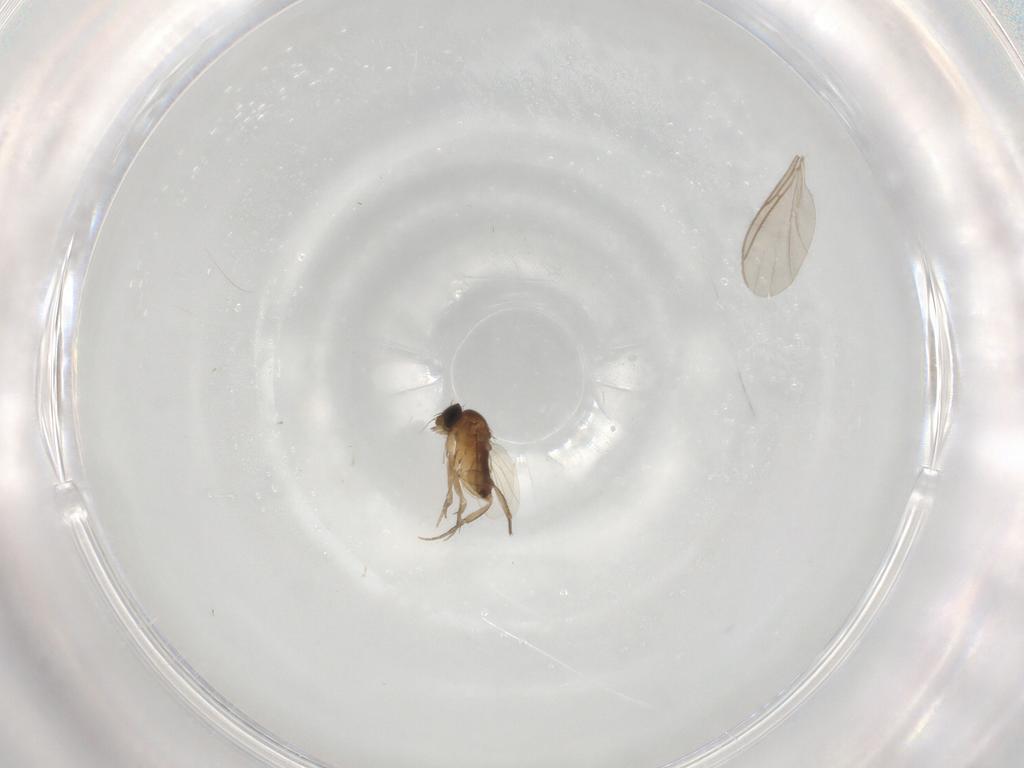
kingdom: Animalia
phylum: Arthropoda
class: Insecta
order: Diptera
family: Phoridae
